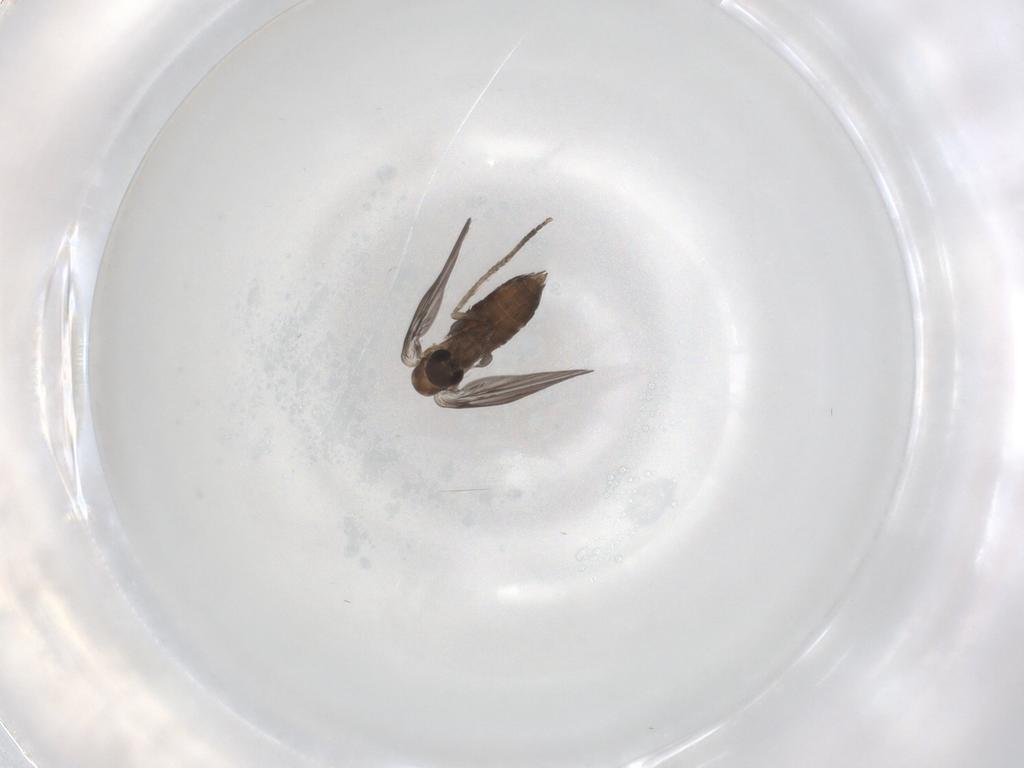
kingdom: Animalia
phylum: Arthropoda
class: Insecta
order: Diptera
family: Psychodidae
